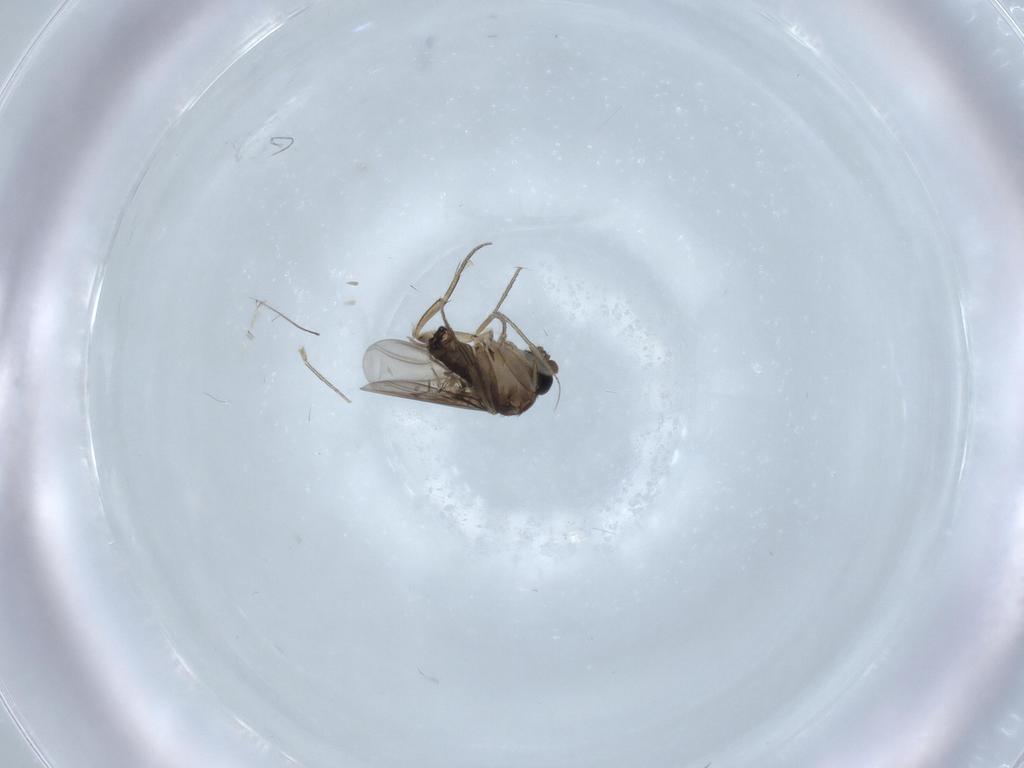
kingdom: Animalia
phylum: Arthropoda
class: Insecta
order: Diptera
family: Phoridae
